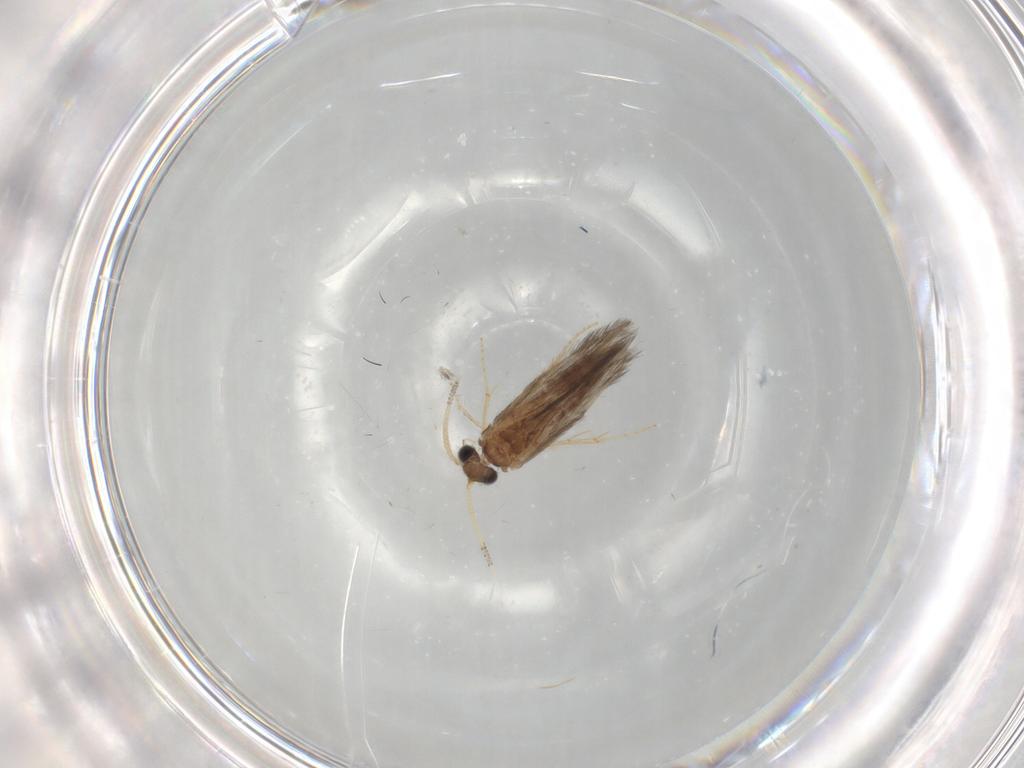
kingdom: Animalia
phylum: Arthropoda
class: Insecta
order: Trichoptera
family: Hydroptilidae
